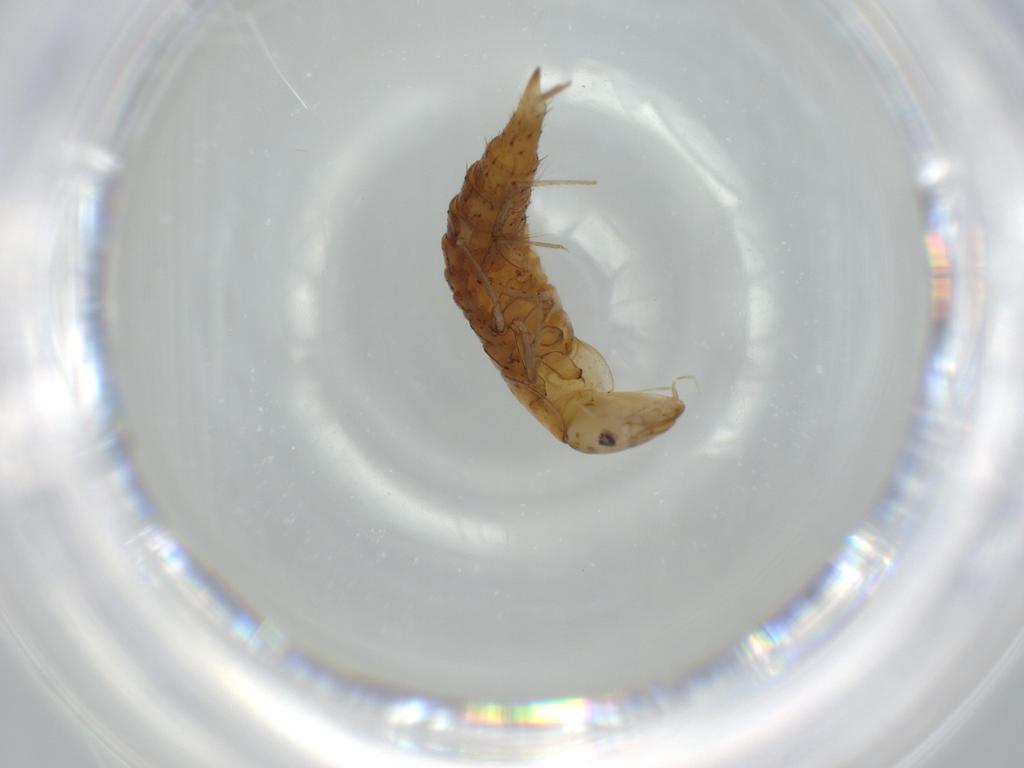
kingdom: Animalia
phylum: Arthropoda
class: Insecta
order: Coleoptera
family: Dytiscidae
